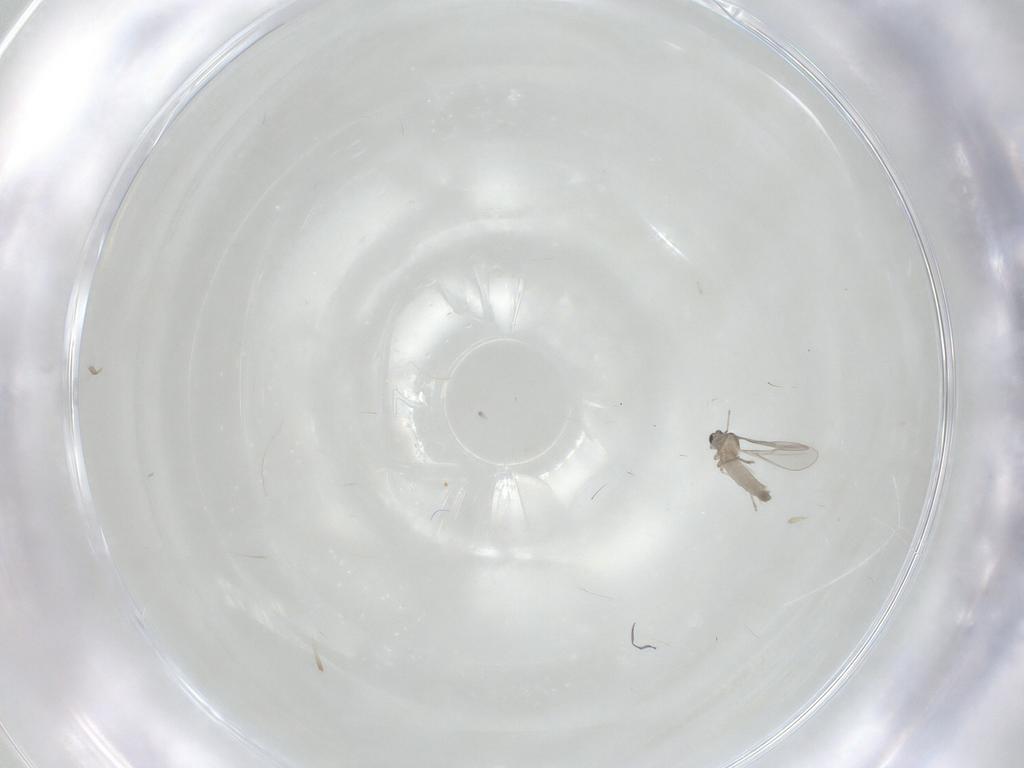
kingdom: Animalia
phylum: Arthropoda
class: Insecta
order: Diptera
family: Cecidomyiidae
